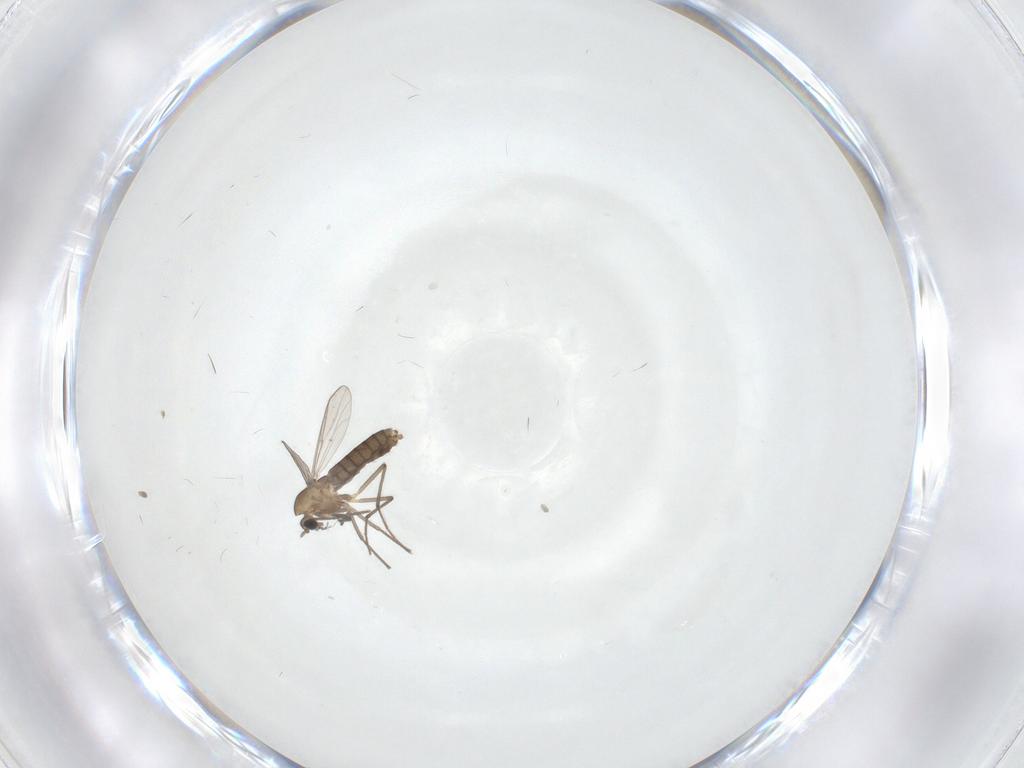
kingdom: Animalia
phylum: Arthropoda
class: Insecta
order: Diptera
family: Chironomidae
